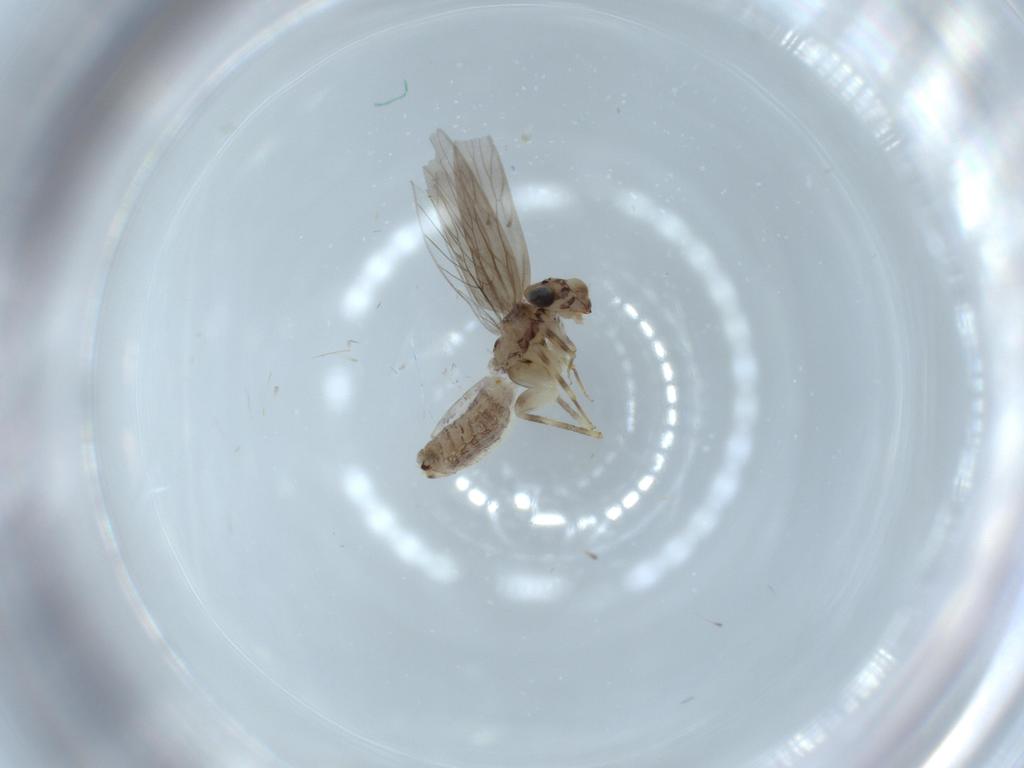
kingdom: Animalia
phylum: Arthropoda
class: Insecta
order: Psocodea
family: Lepidopsocidae
